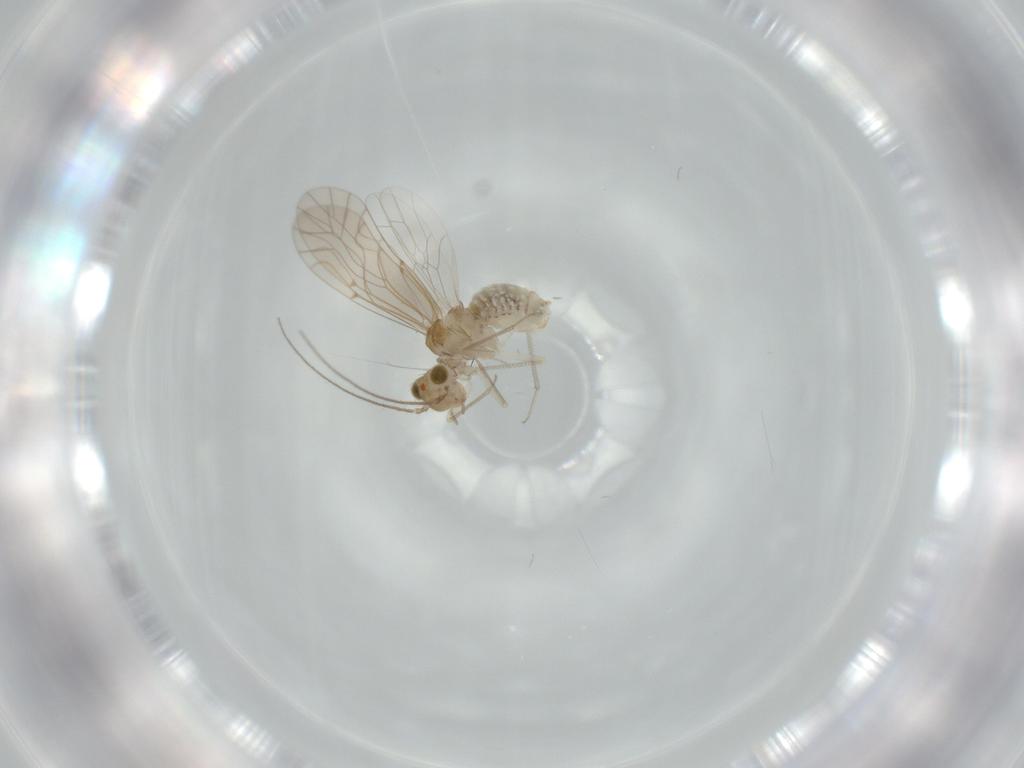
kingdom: Animalia
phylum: Arthropoda
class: Insecta
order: Psocodea
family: Lachesillidae
